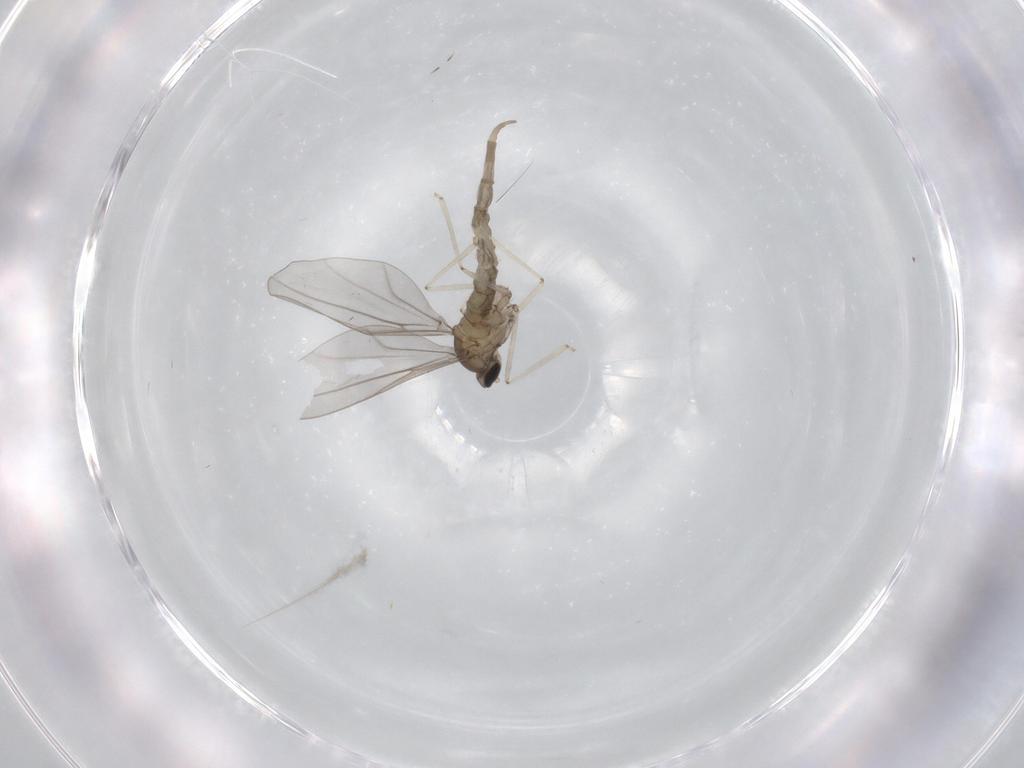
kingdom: Animalia
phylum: Arthropoda
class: Insecta
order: Diptera
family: Cecidomyiidae
